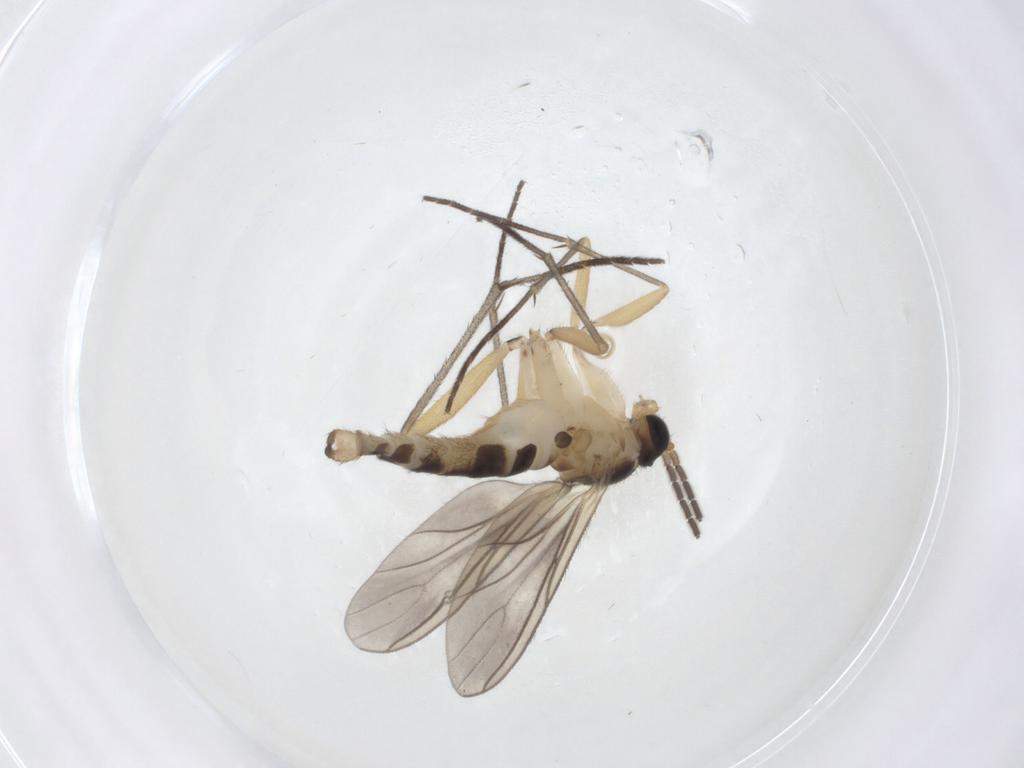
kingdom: Animalia
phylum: Arthropoda
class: Insecta
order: Diptera
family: Sciaridae
